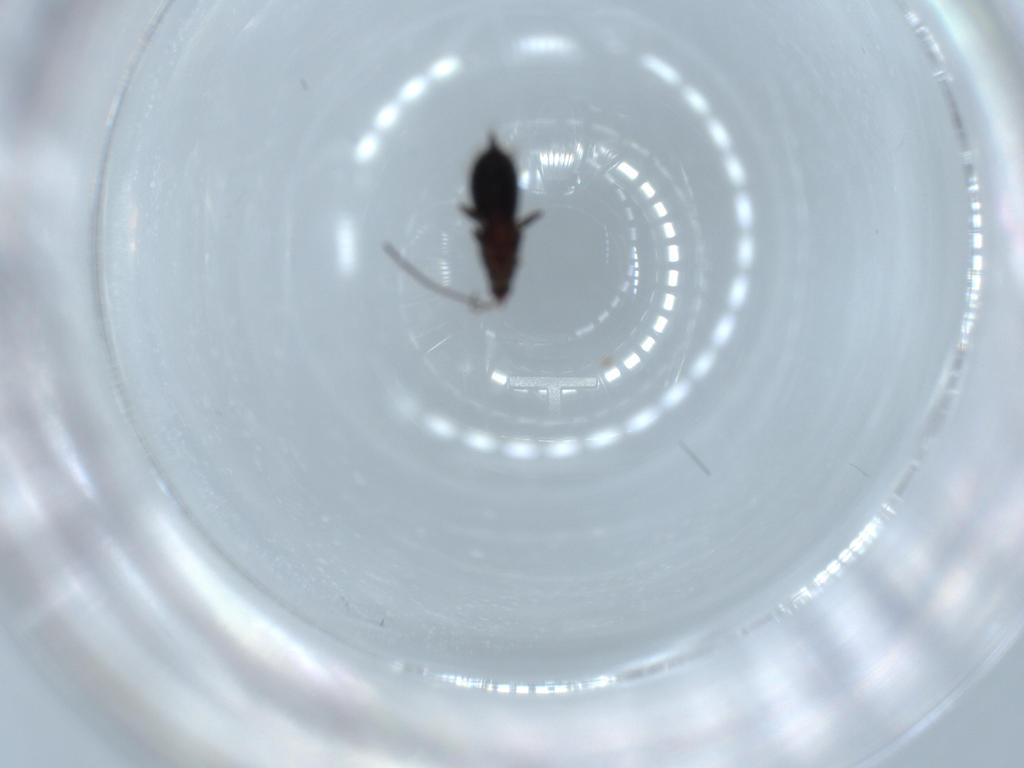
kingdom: Animalia
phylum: Arthropoda
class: Insecta
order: Thysanoptera
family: Phlaeothripidae
